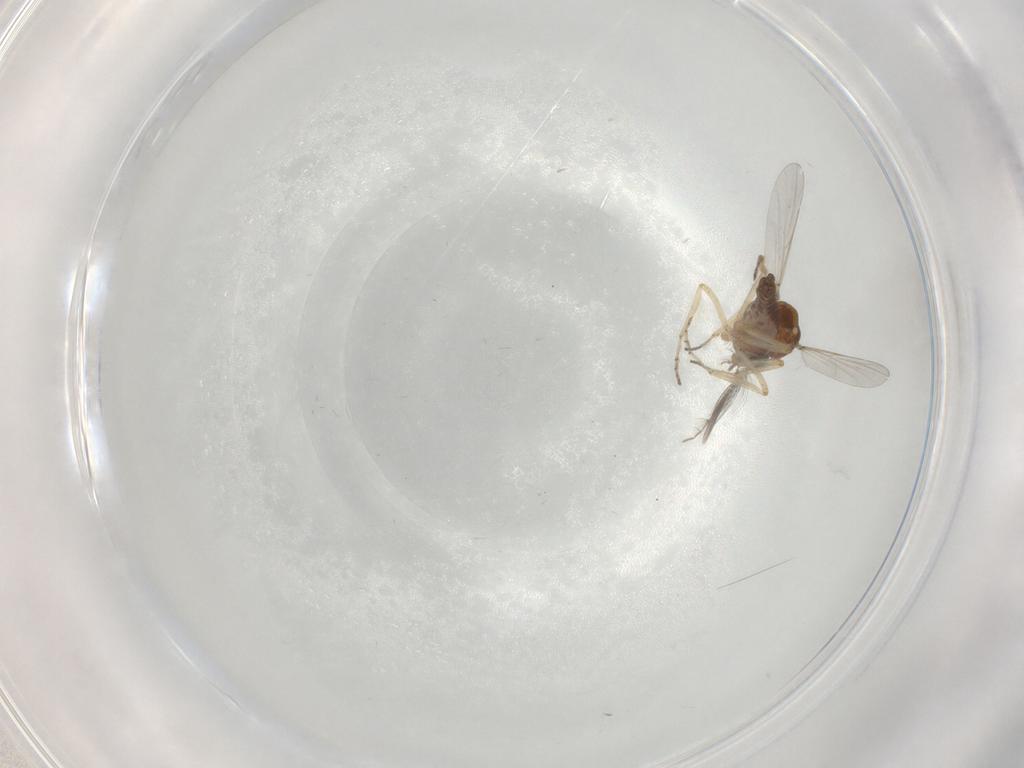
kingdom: Animalia
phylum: Arthropoda
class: Insecta
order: Diptera
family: Ceratopogonidae
